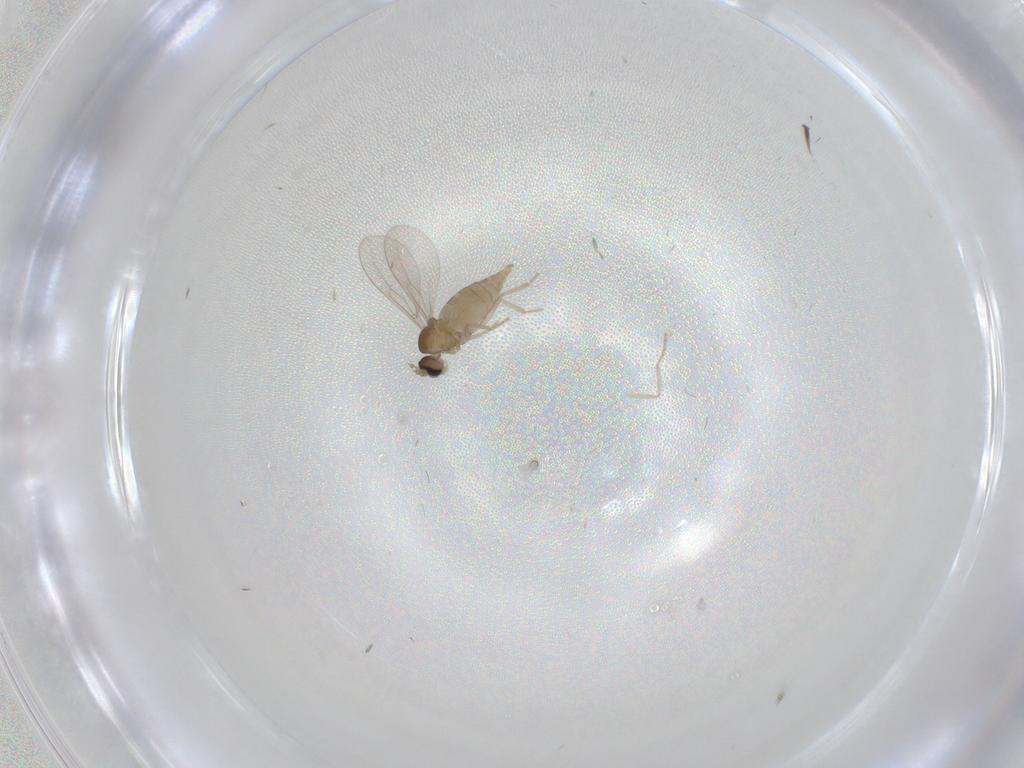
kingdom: Animalia
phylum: Arthropoda
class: Insecta
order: Diptera
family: Cecidomyiidae
